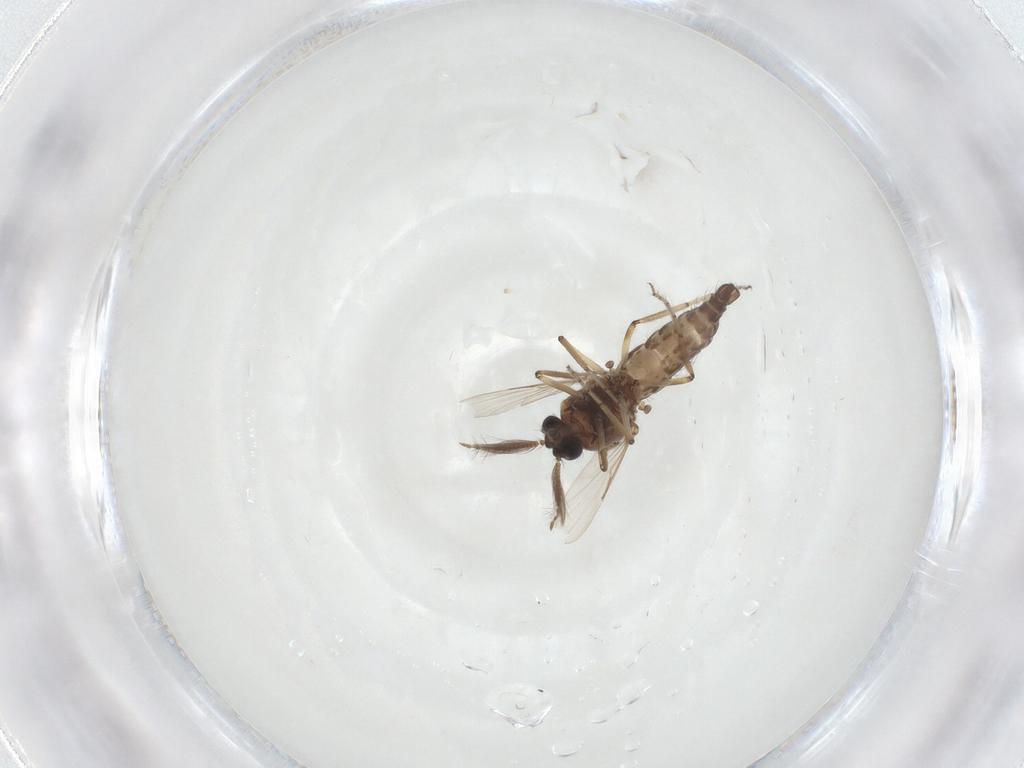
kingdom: Animalia
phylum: Arthropoda
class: Insecta
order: Diptera
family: Ceratopogonidae
